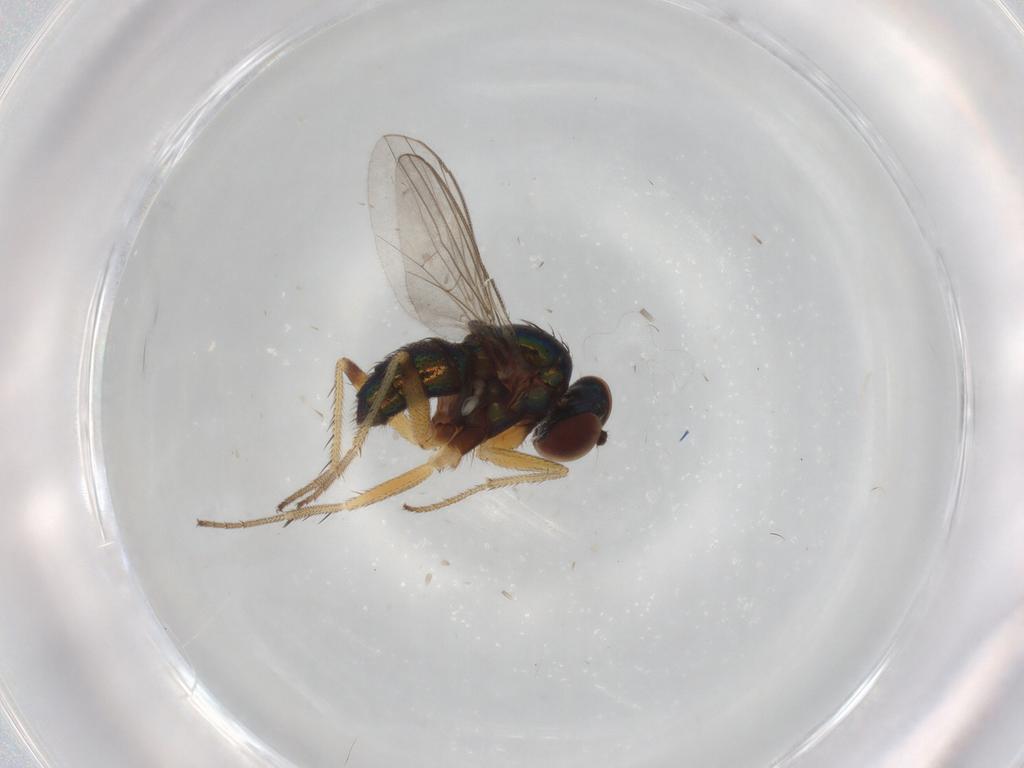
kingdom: Animalia
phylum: Arthropoda
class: Insecta
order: Diptera
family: Dolichopodidae
